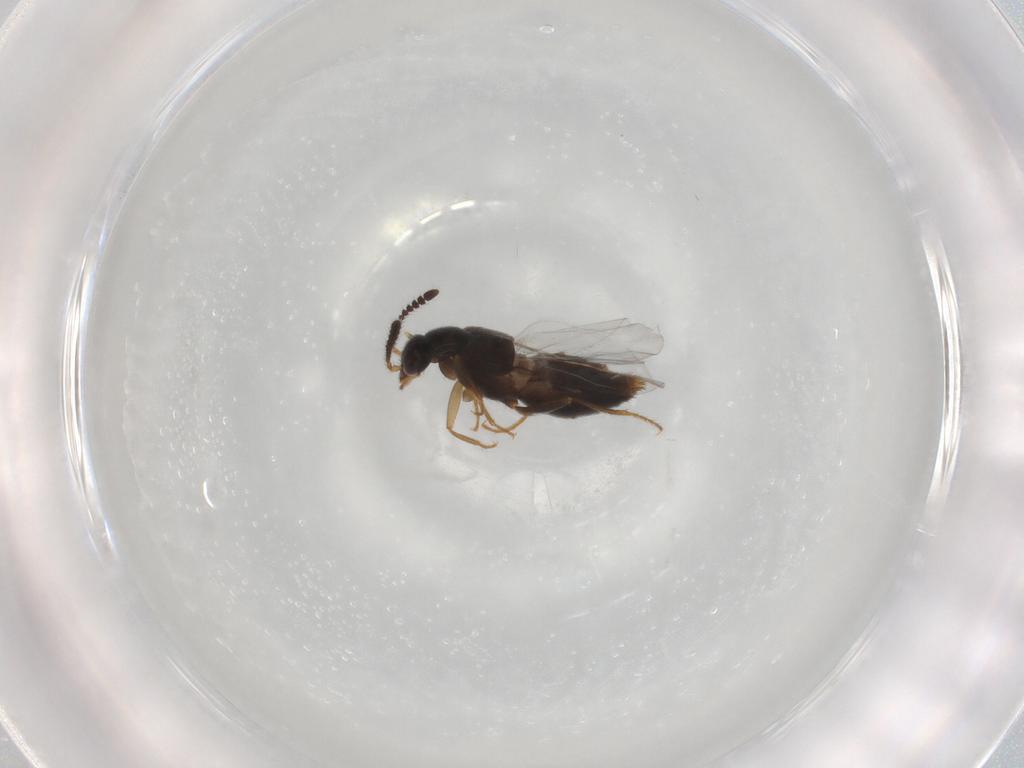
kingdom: Animalia
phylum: Arthropoda
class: Insecta
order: Coleoptera
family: Staphylinidae
